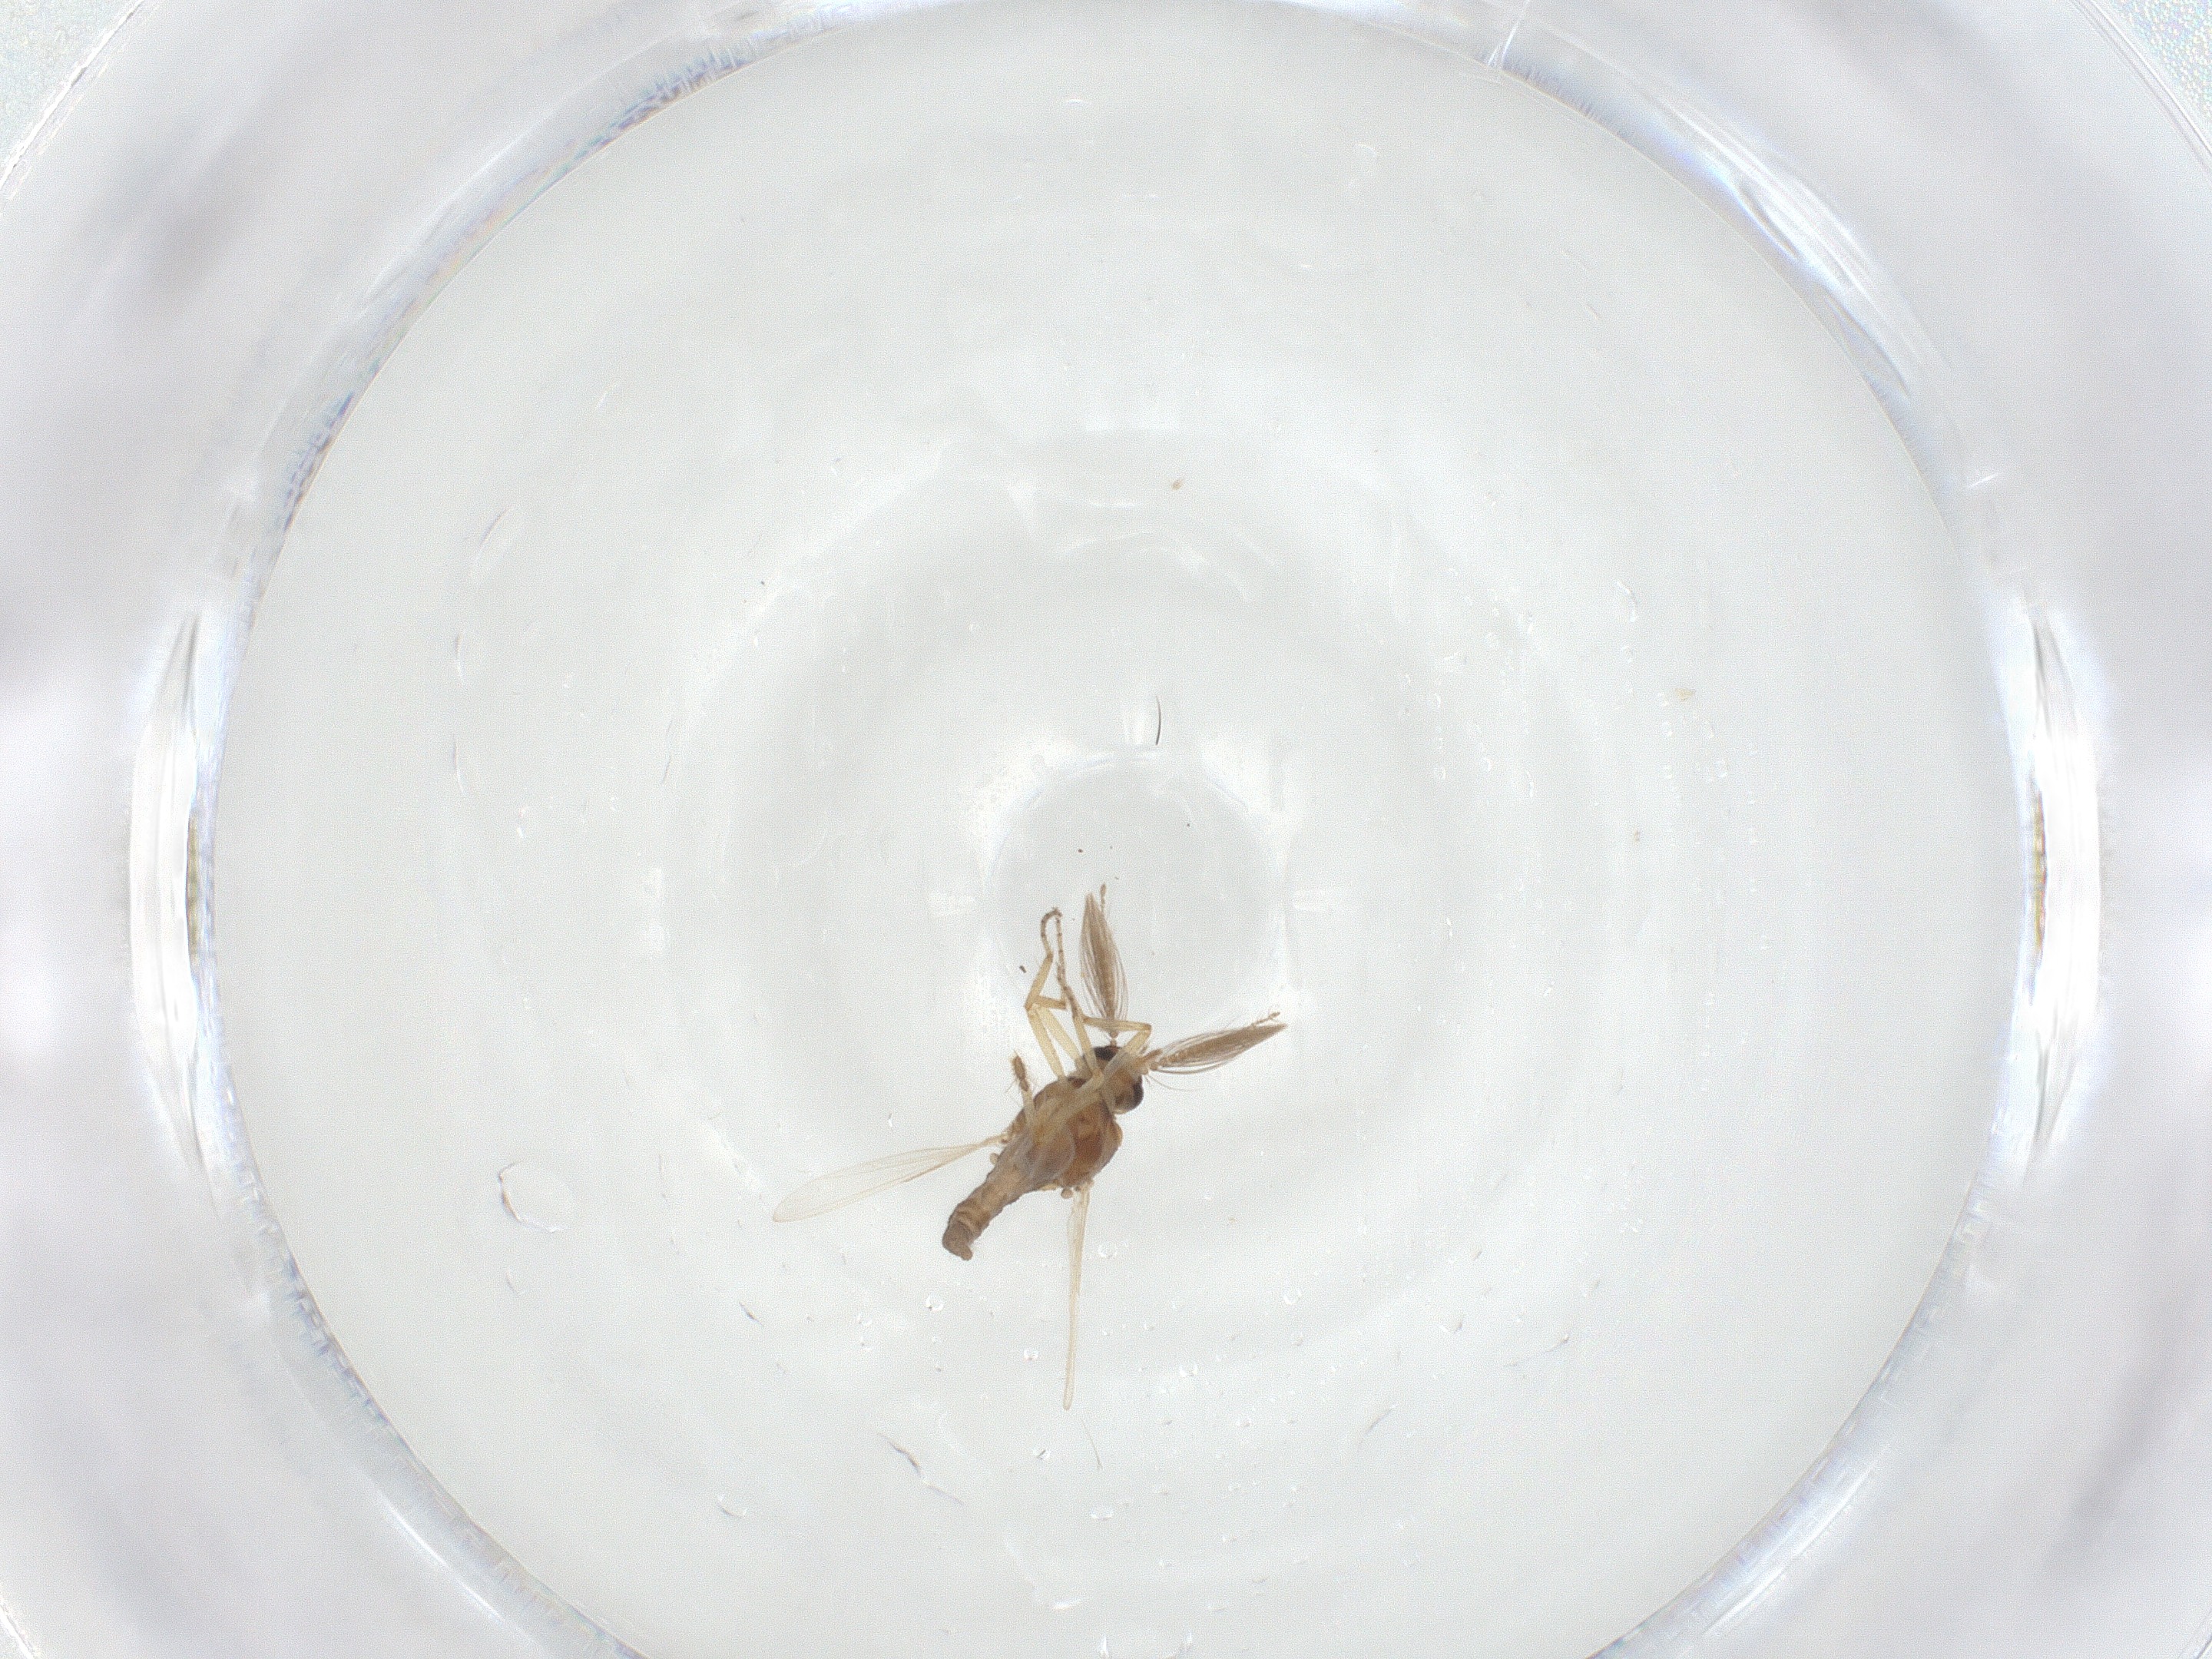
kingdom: Animalia
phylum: Arthropoda
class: Insecta
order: Diptera
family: Ceratopogonidae
